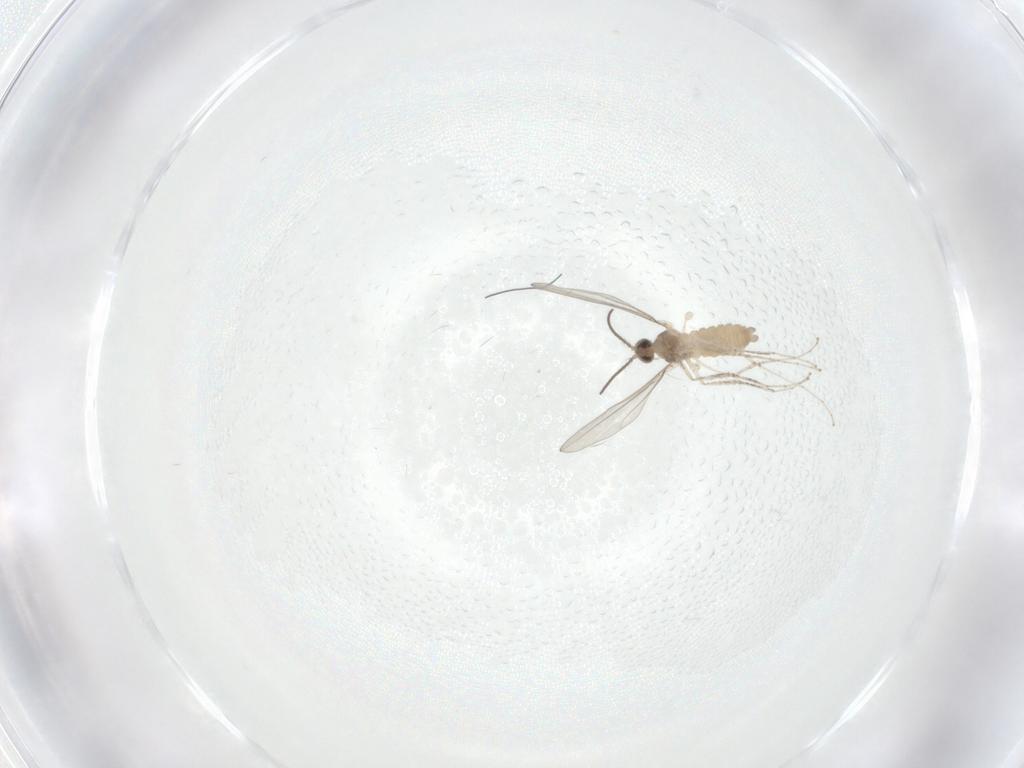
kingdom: Animalia
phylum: Arthropoda
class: Insecta
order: Diptera
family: Cecidomyiidae
